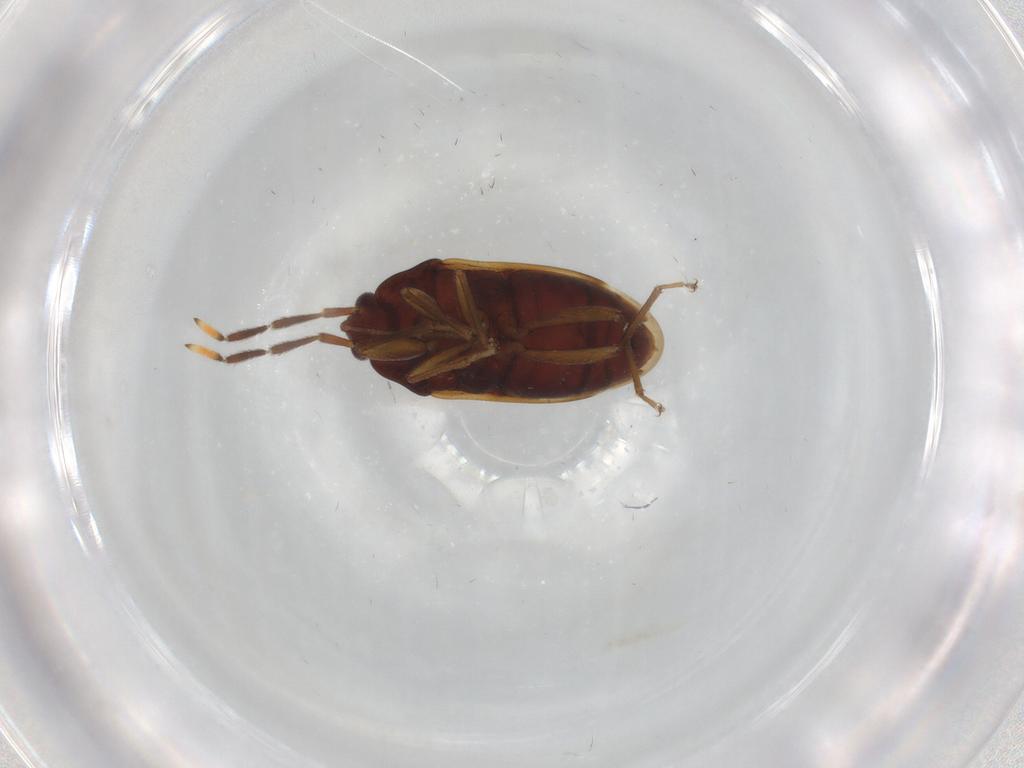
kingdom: Animalia
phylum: Arthropoda
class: Insecta
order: Hemiptera
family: Rhyparochromidae
